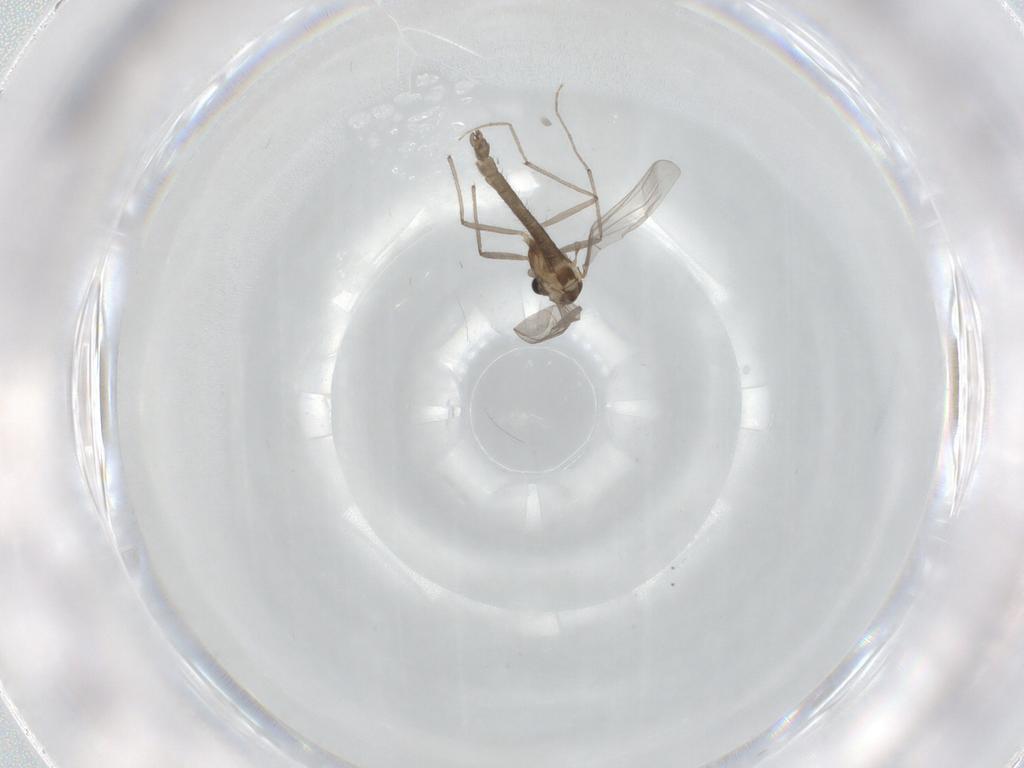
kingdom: Animalia
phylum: Arthropoda
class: Insecta
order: Diptera
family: Chironomidae
